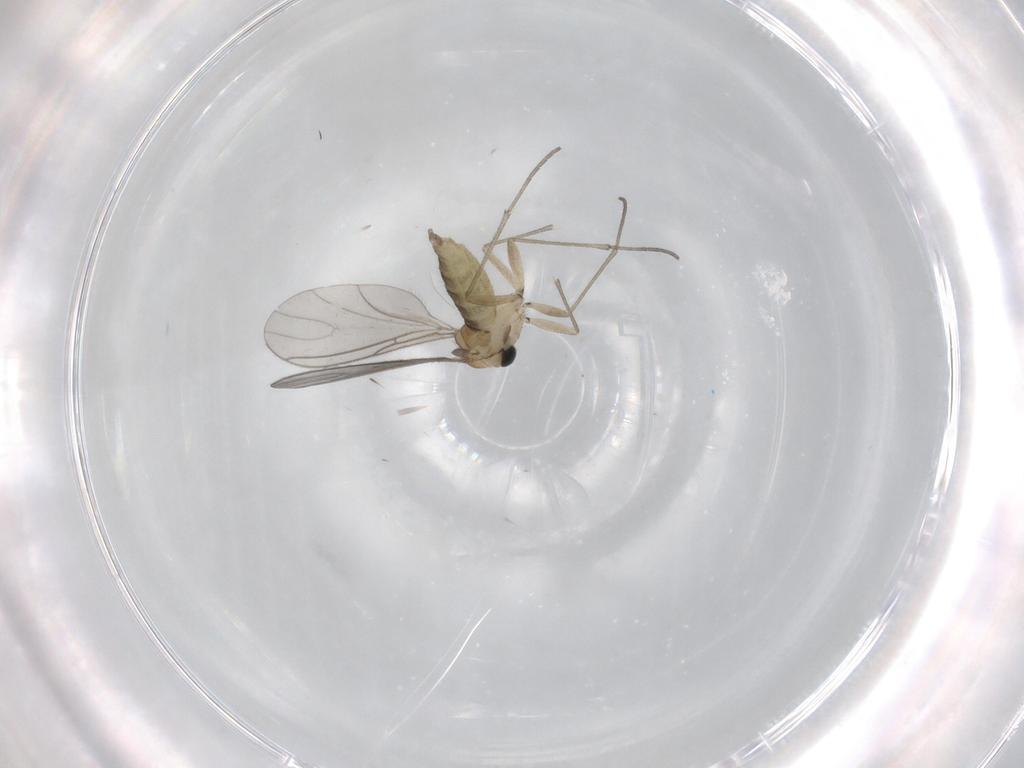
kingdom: Animalia
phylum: Arthropoda
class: Insecta
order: Diptera
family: Sciaridae
